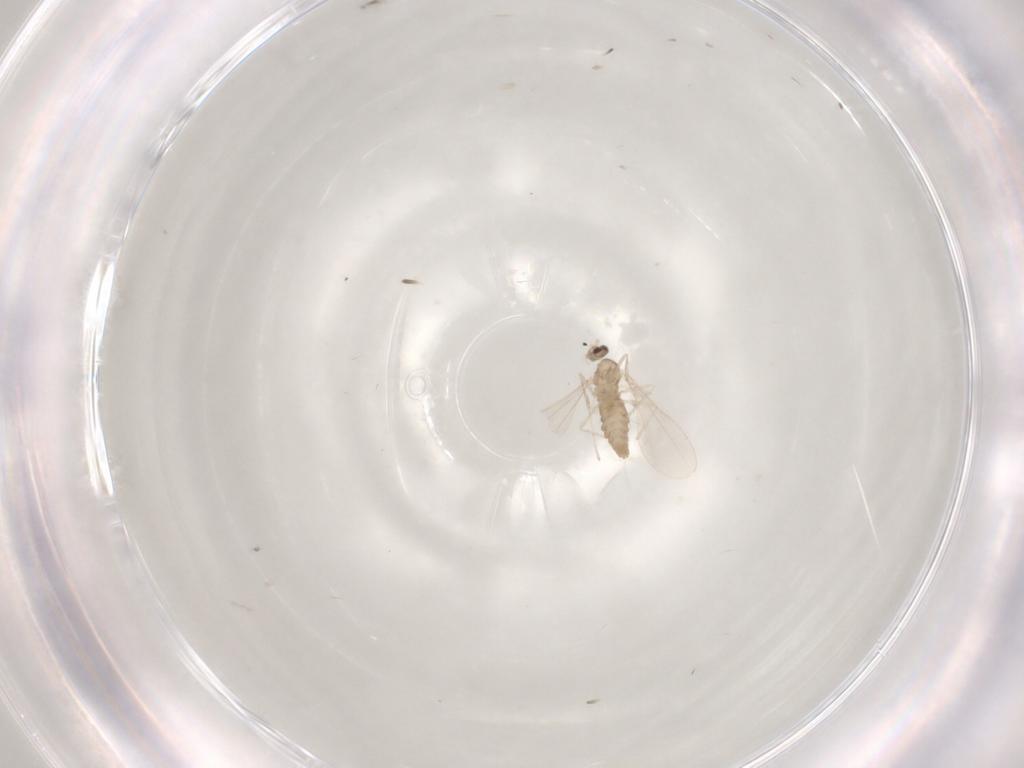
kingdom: Animalia
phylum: Arthropoda
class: Insecta
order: Diptera
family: Cecidomyiidae
